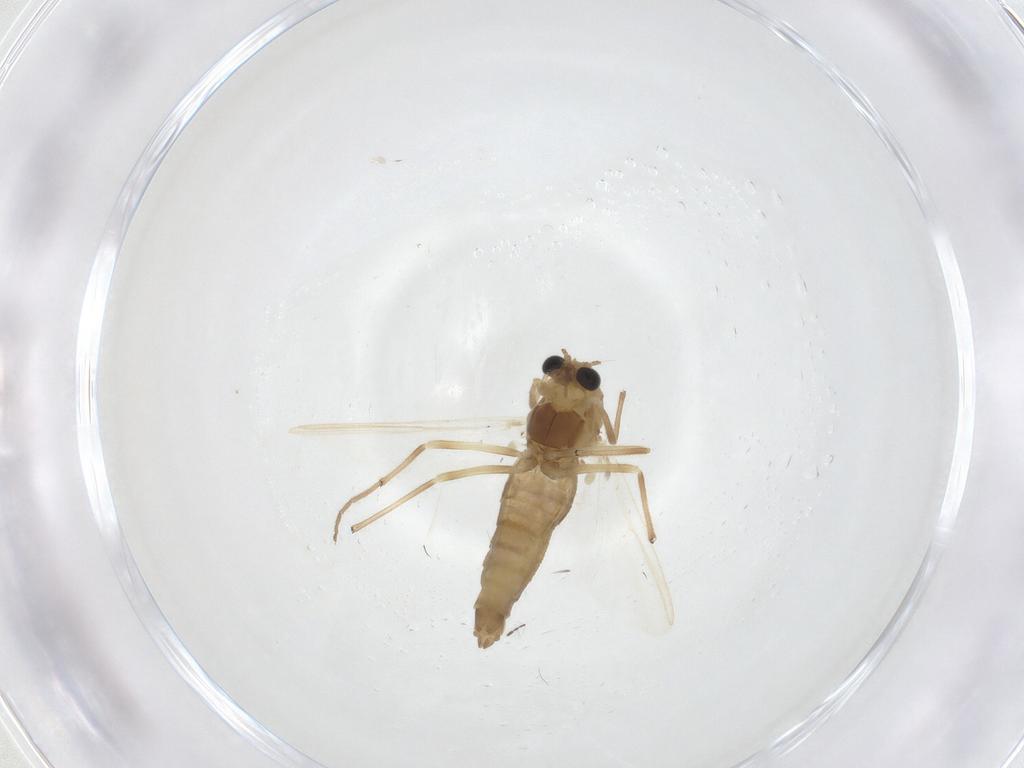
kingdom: Animalia
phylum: Arthropoda
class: Insecta
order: Diptera
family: Chironomidae
